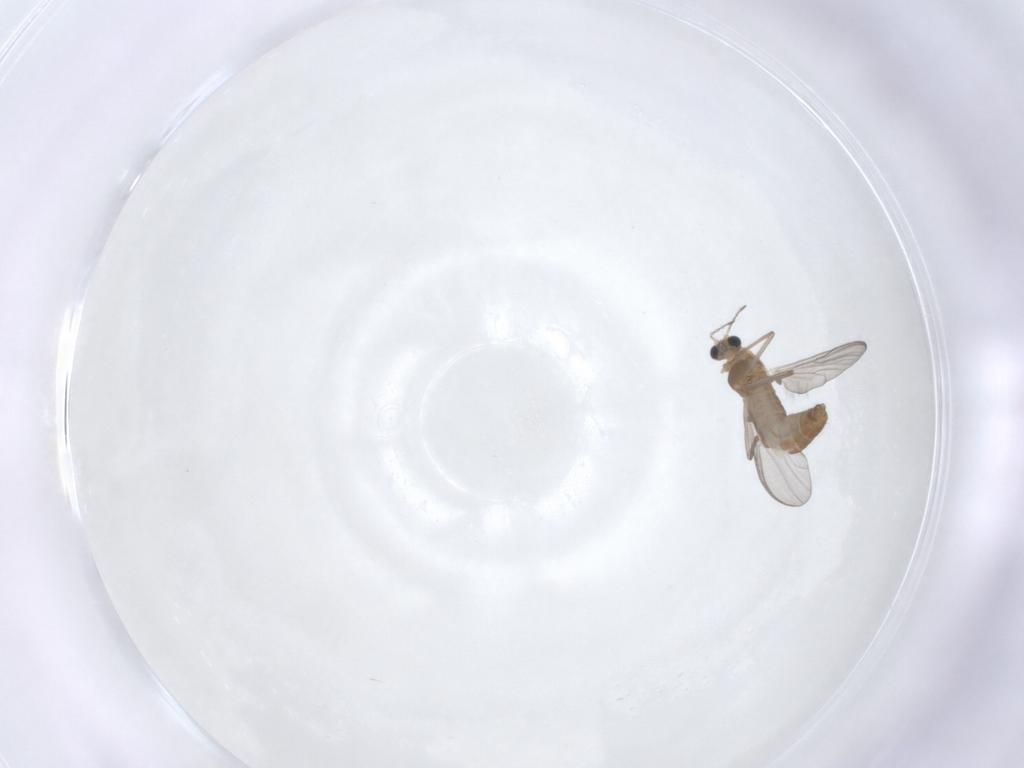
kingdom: Animalia
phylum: Arthropoda
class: Insecta
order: Diptera
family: Chironomidae
